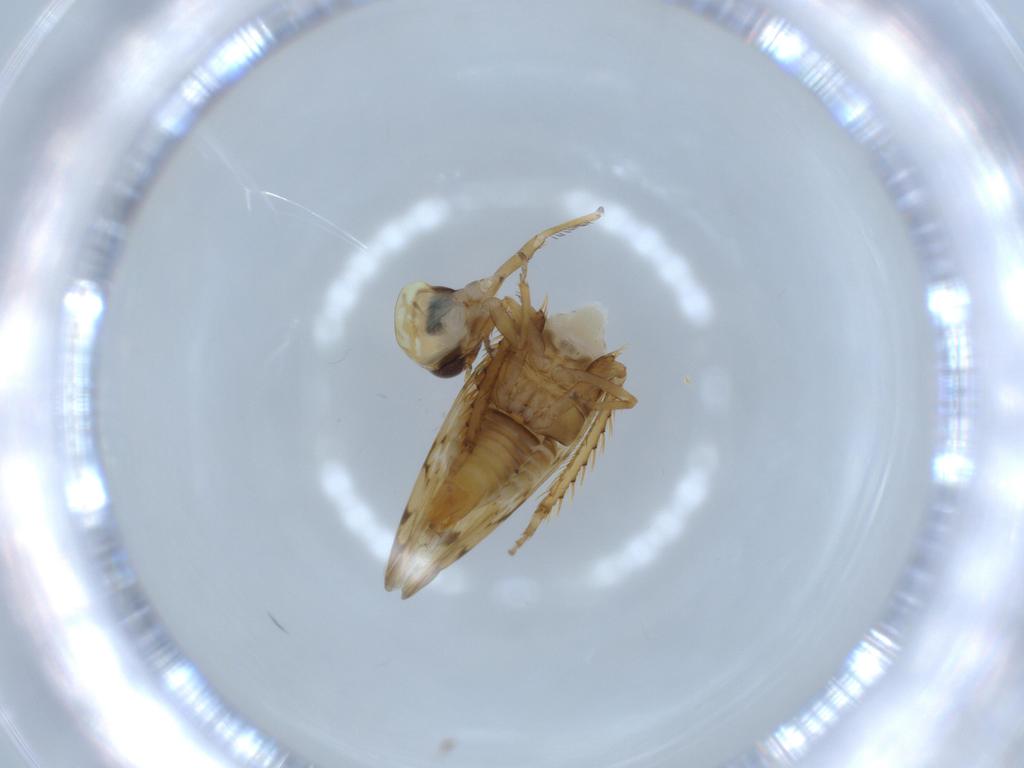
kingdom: Animalia
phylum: Arthropoda
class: Insecta
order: Hemiptera
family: Cicadellidae
